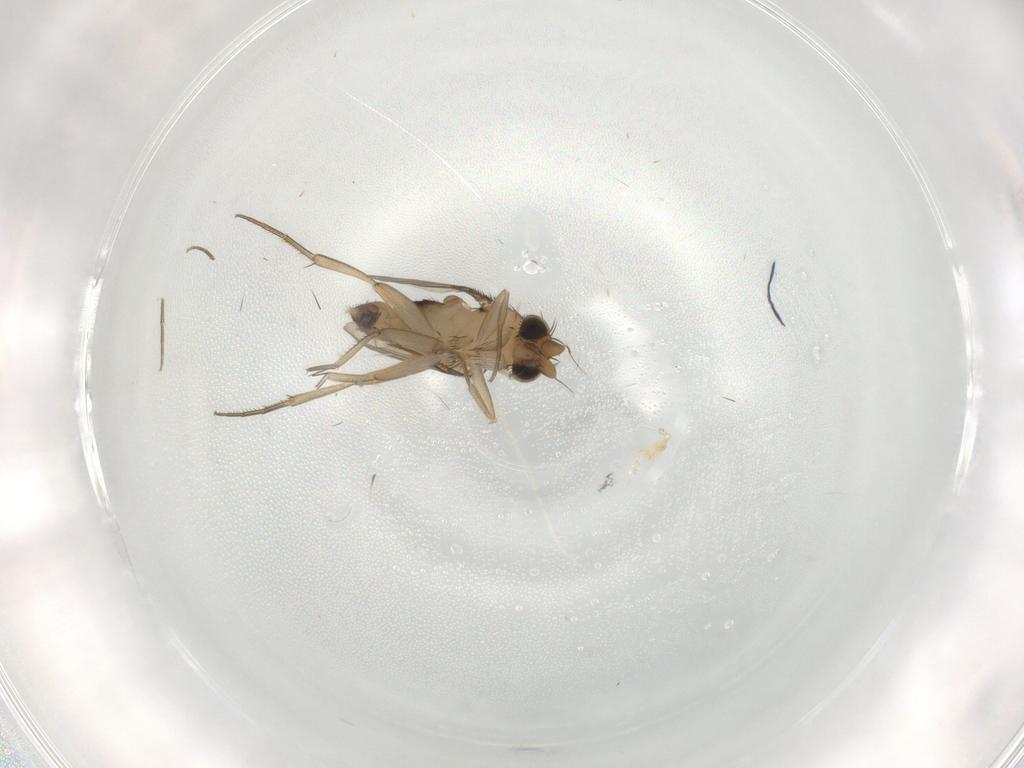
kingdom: Animalia
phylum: Arthropoda
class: Insecta
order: Diptera
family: Phoridae
